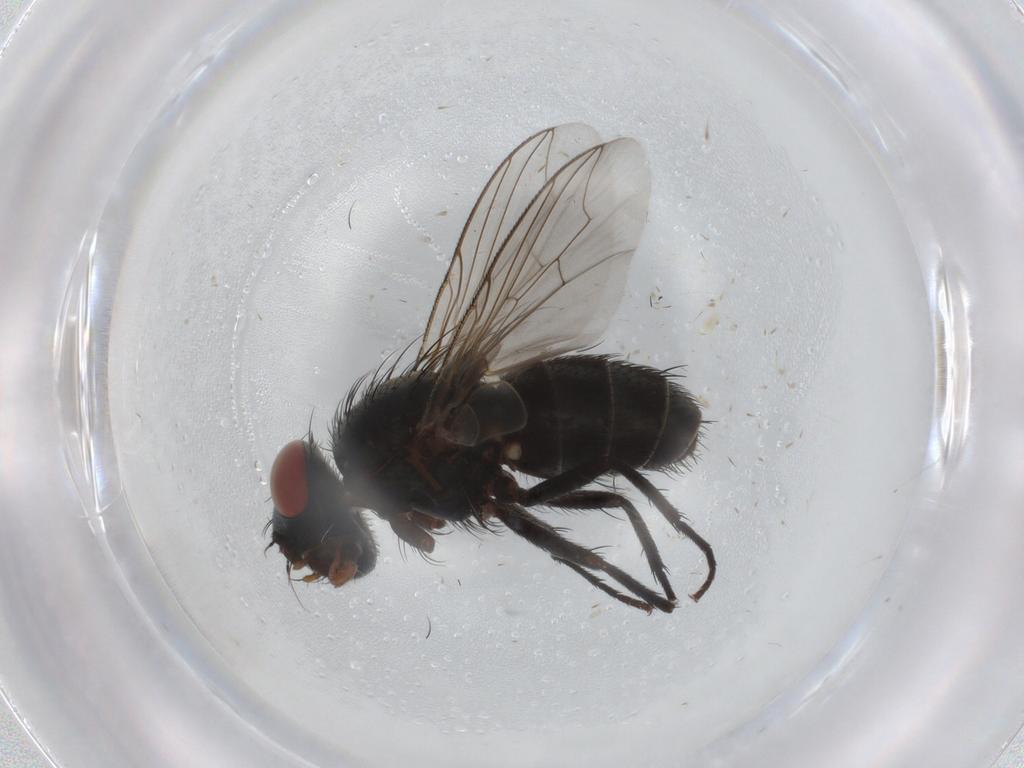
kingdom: Animalia
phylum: Arthropoda
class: Insecta
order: Diptera
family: Sarcophagidae
